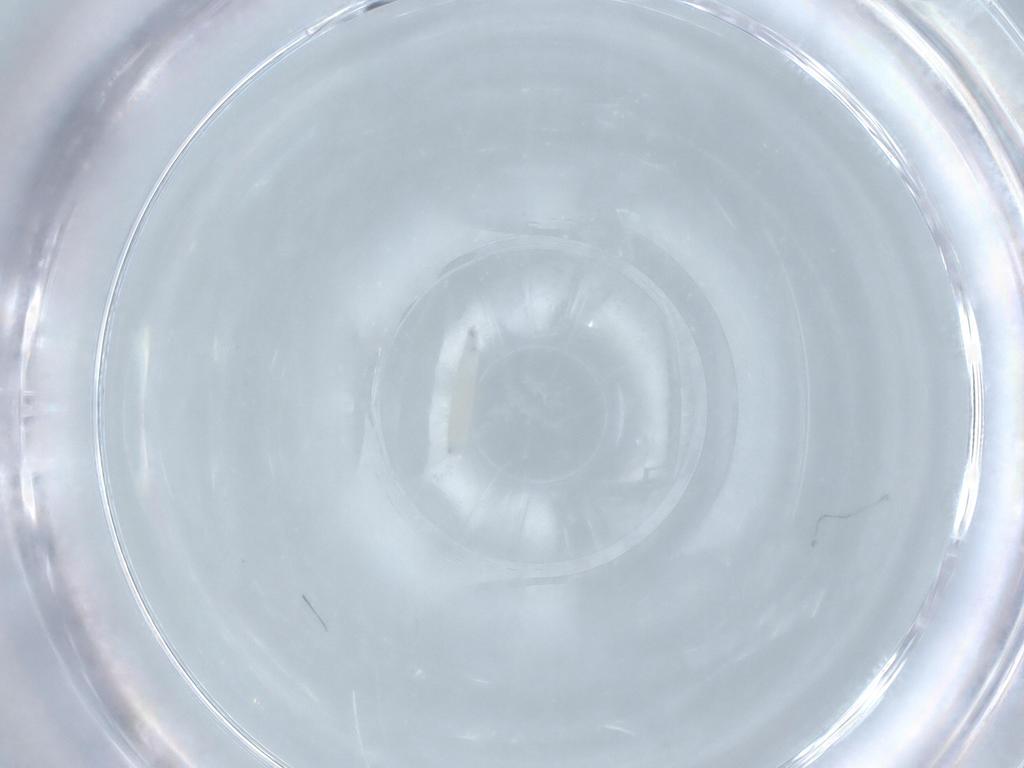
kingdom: Animalia
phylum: Arthropoda
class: Insecta
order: Diptera
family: Sarcophagidae
